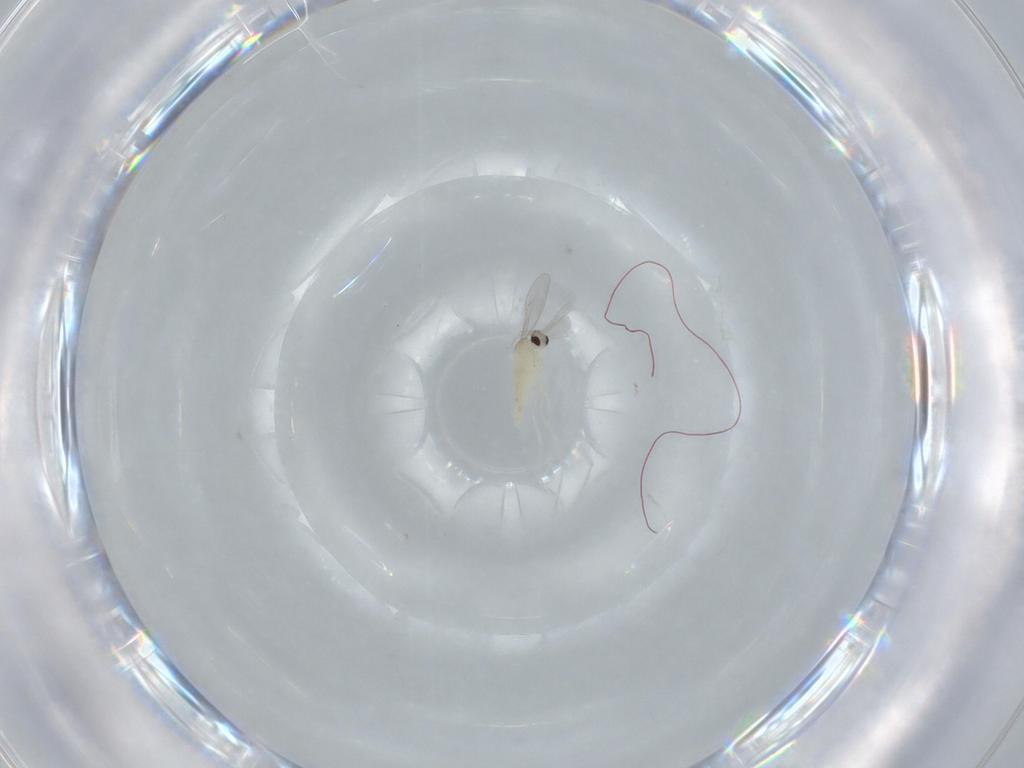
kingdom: Animalia
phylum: Arthropoda
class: Insecta
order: Diptera
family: Cecidomyiidae
